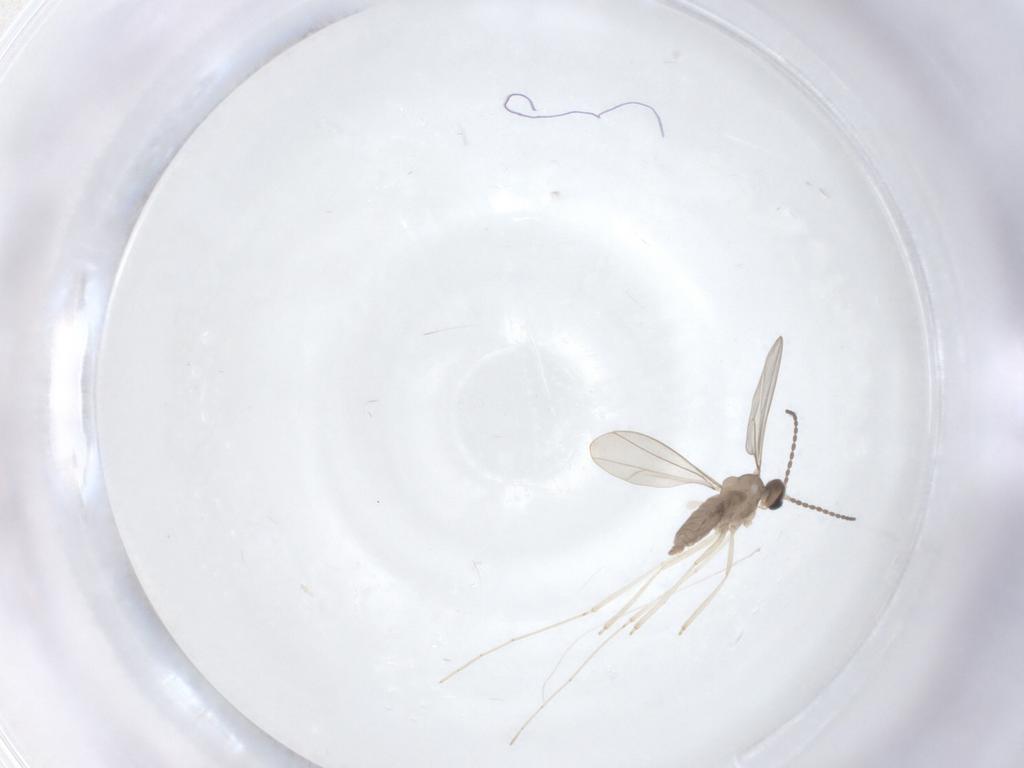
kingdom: Animalia
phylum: Arthropoda
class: Insecta
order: Diptera
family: Cecidomyiidae
